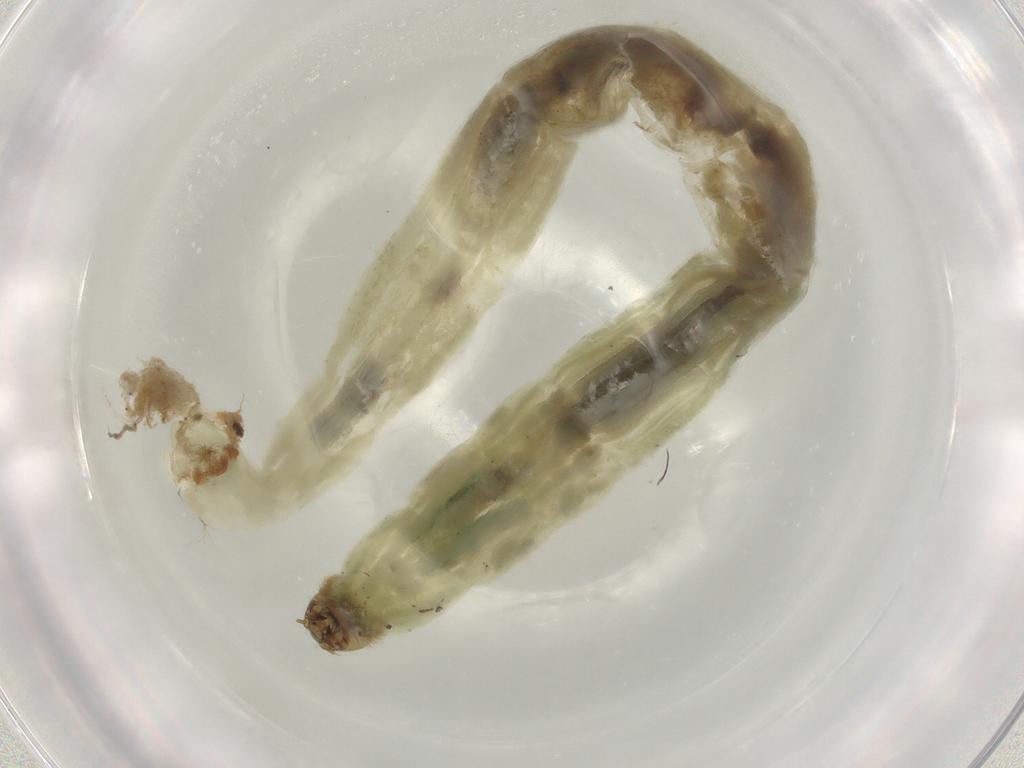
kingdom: Animalia
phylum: Arthropoda
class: Insecta
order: Diptera
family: Chironomidae
